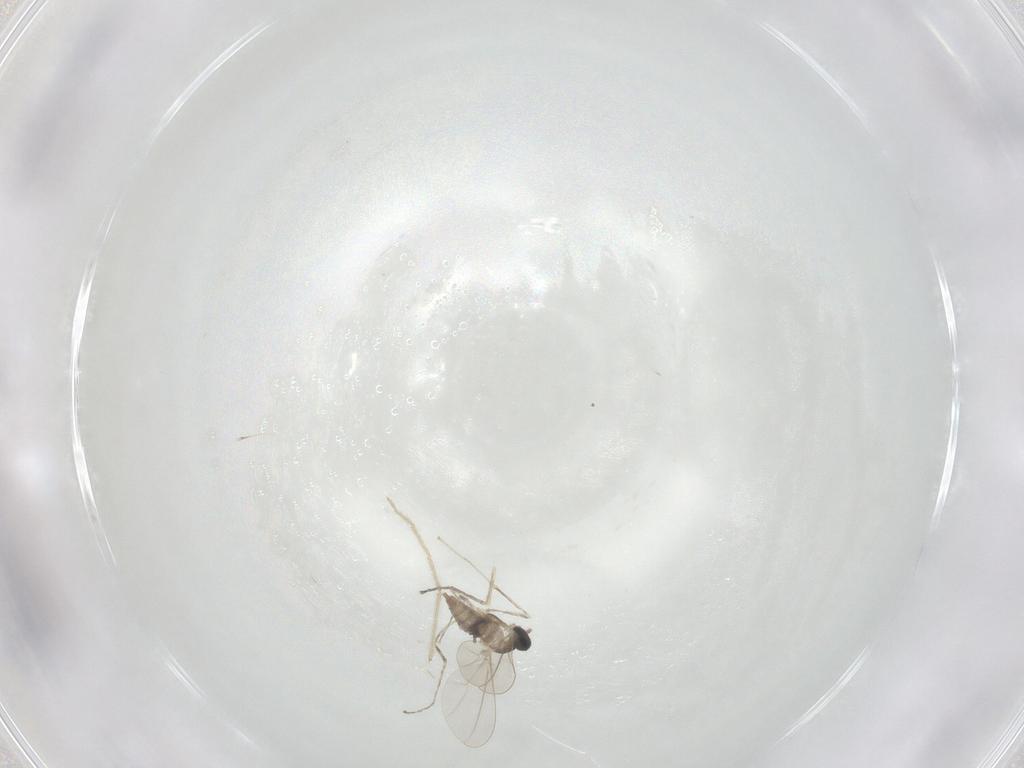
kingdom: Animalia
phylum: Arthropoda
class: Insecta
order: Diptera
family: Cecidomyiidae
